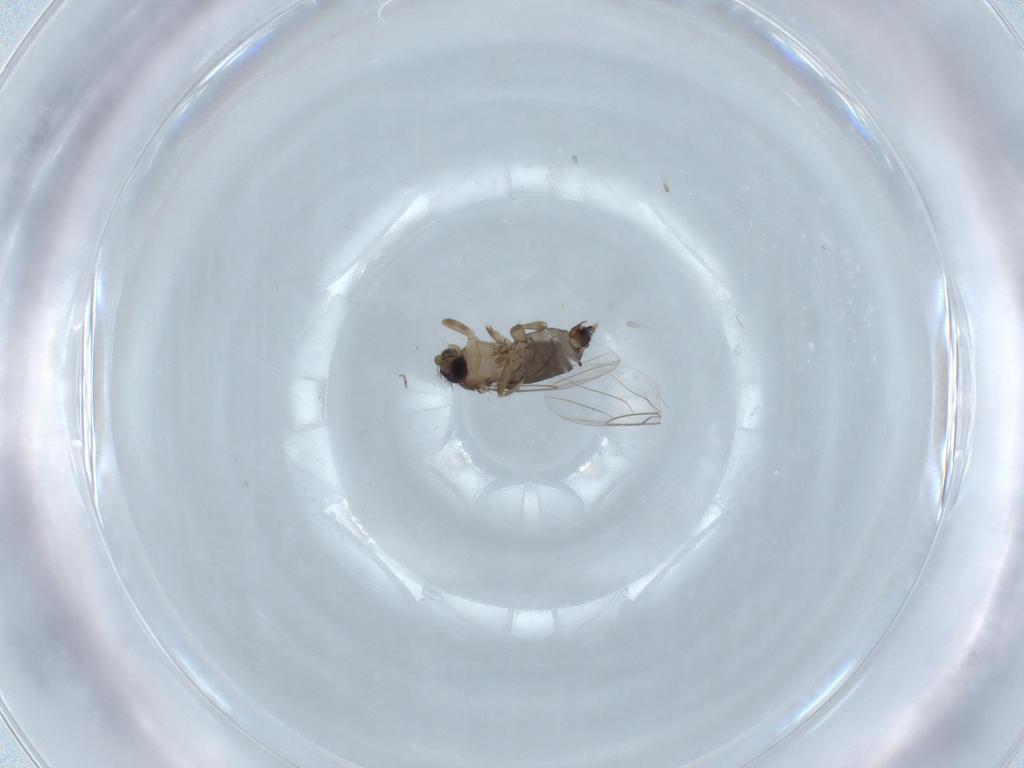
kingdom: Animalia
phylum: Arthropoda
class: Insecta
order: Diptera
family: Phoridae
